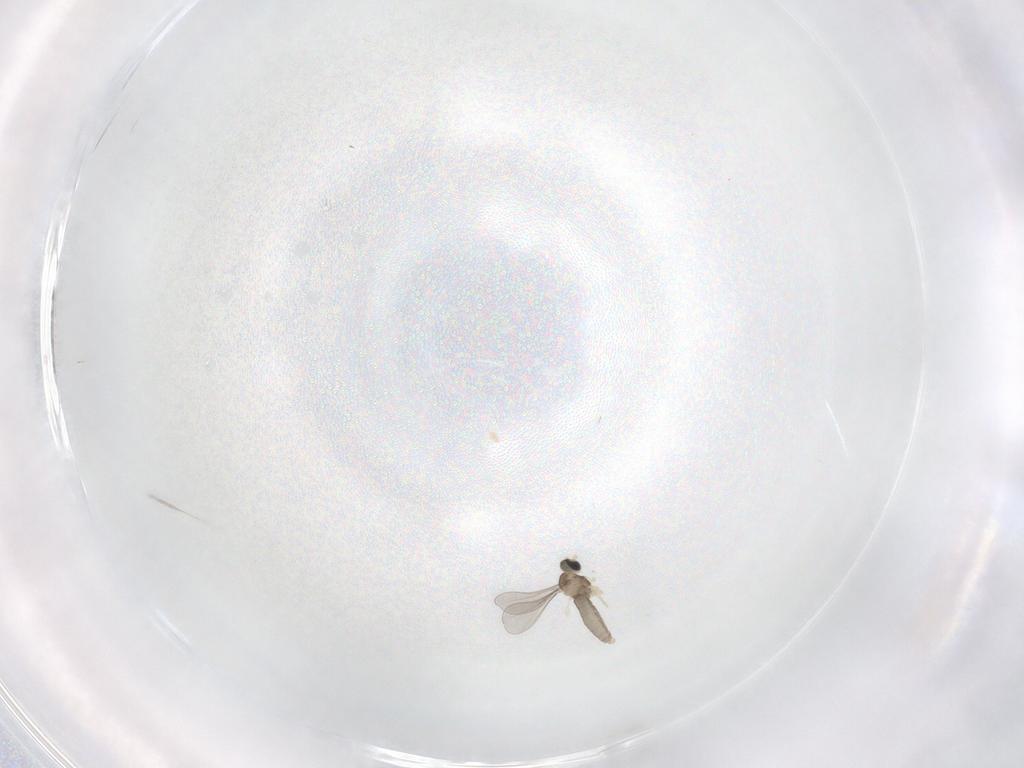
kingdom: Animalia
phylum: Arthropoda
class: Insecta
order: Diptera
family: Cecidomyiidae
